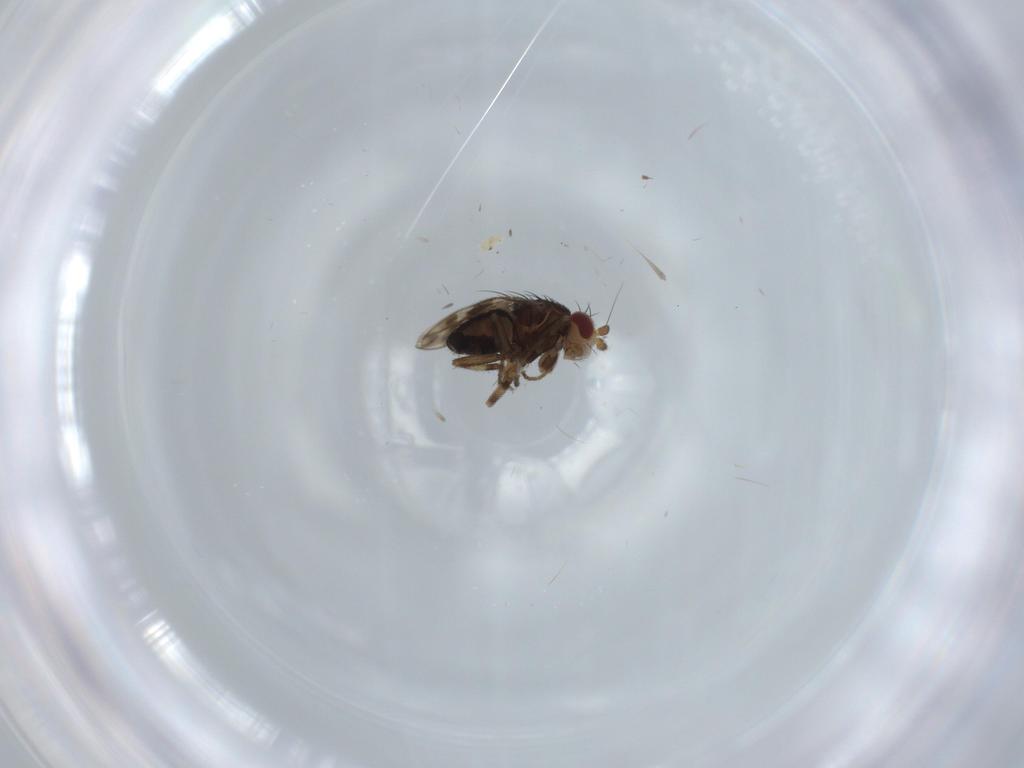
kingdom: Animalia
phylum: Arthropoda
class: Insecta
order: Diptera
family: Sphaeroceridae
